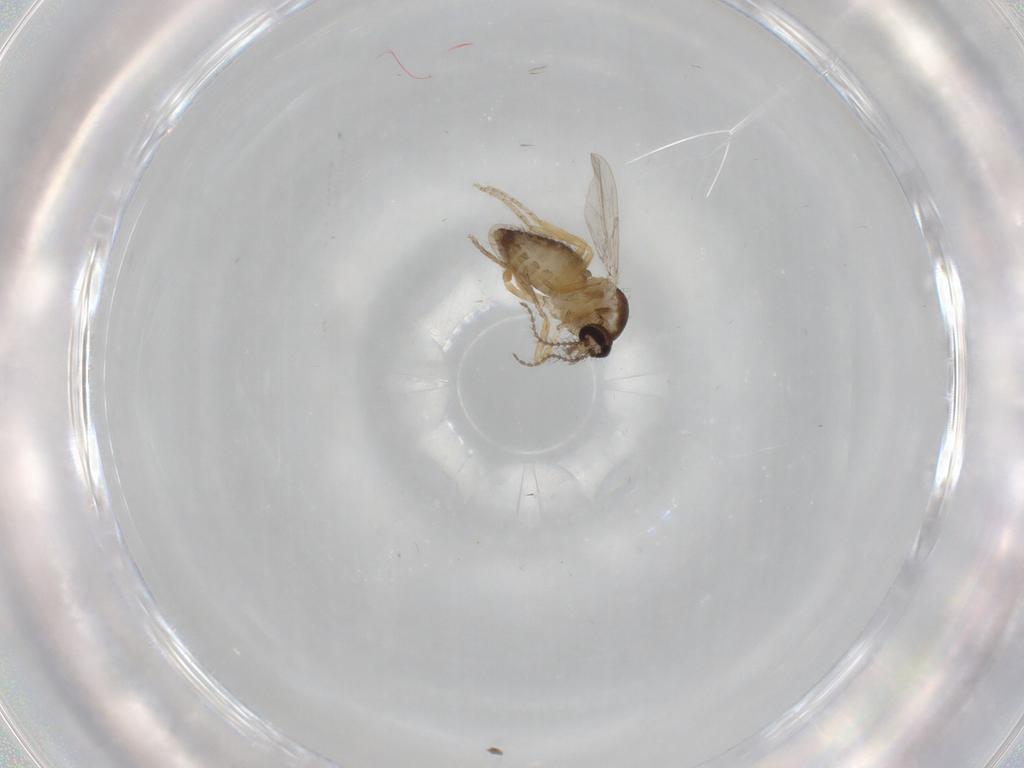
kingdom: Animalia
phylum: Arthropoda
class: Insecta
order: Diptera
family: Ceratopogonidae
